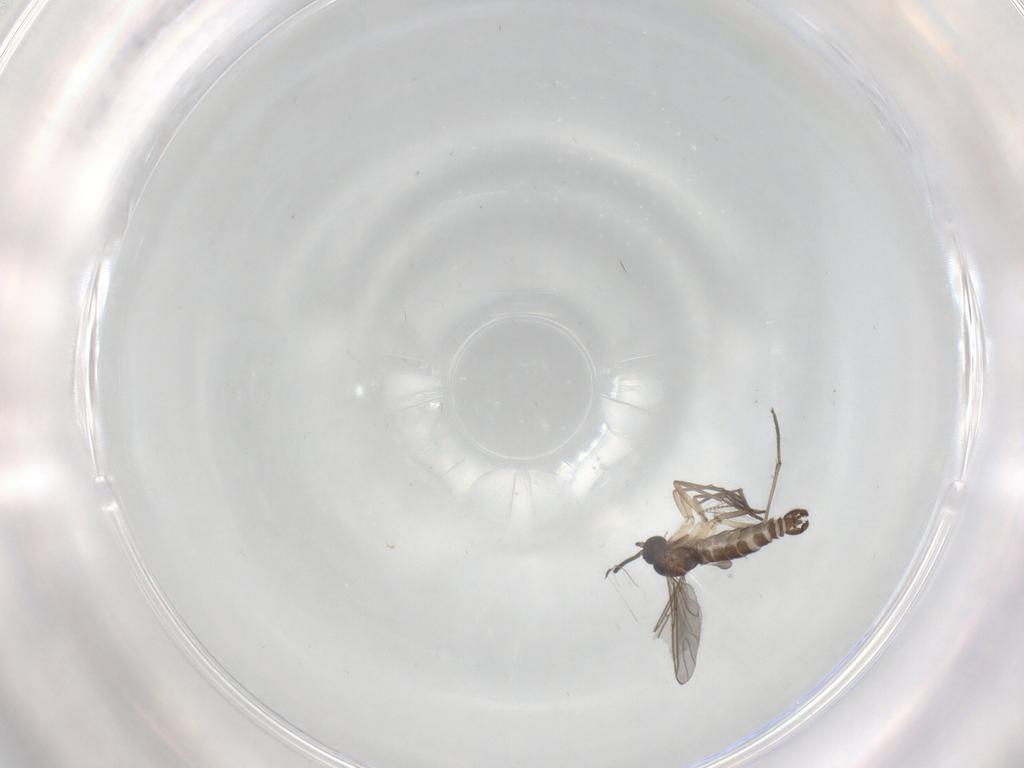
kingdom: Animalia
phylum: Arthropoda
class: Insecta
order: Diptera
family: Sciaridae
